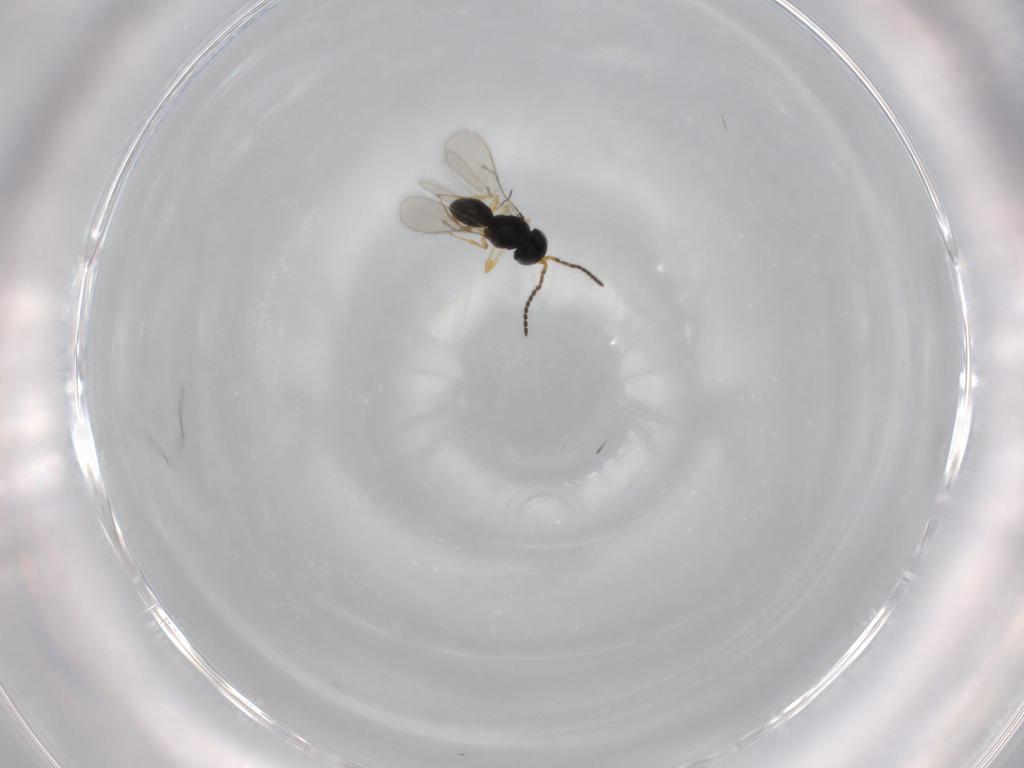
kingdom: Animalia
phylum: Arthropoda
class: Insecta
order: Hymenoptera
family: Scelionidae
